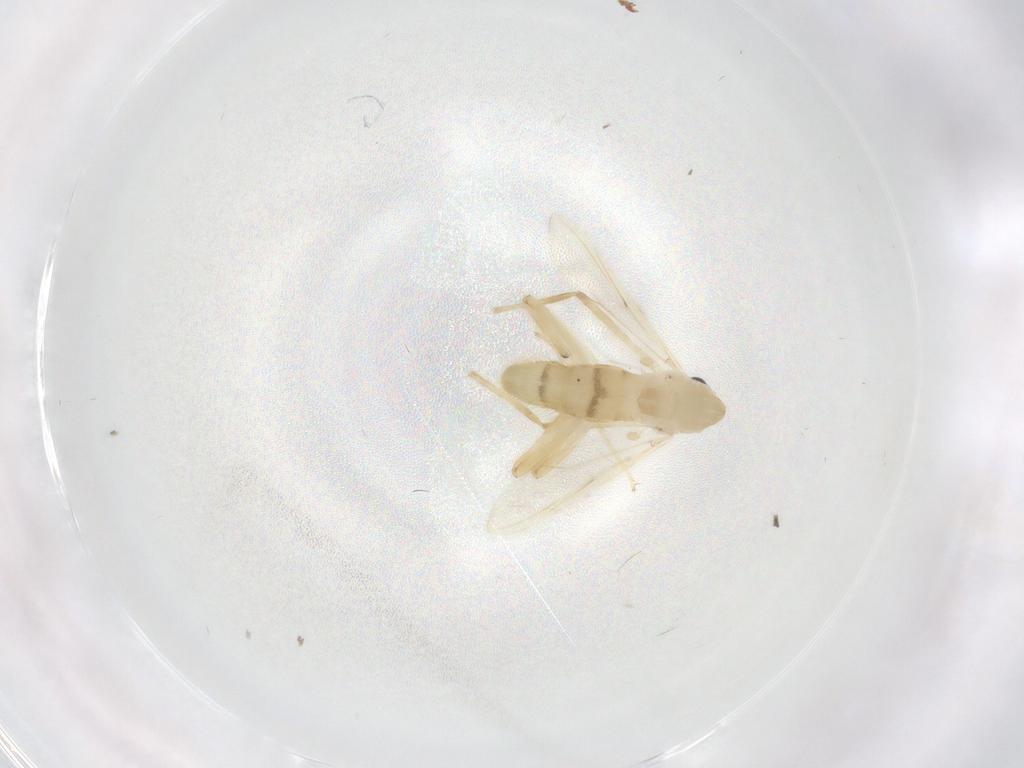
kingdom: Animalia
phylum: Arthropoda
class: Insecta
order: Diptera
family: Chironomidae
